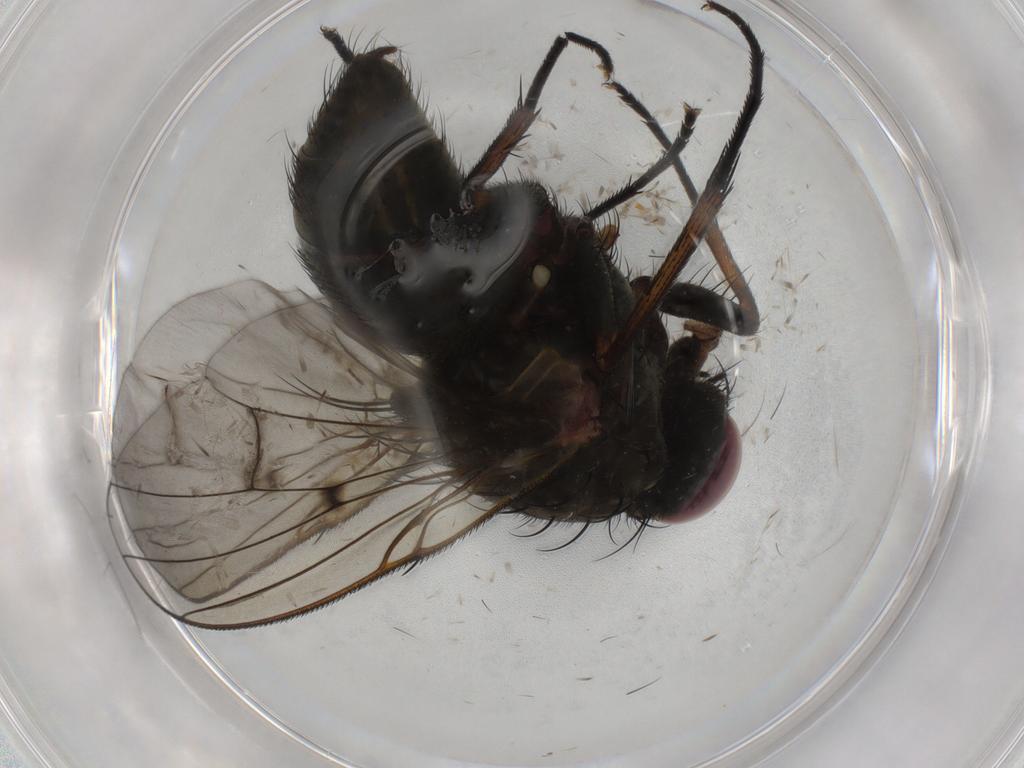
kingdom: Animalia
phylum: Arthropoda
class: Insecta
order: Diptera
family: Muscidae
